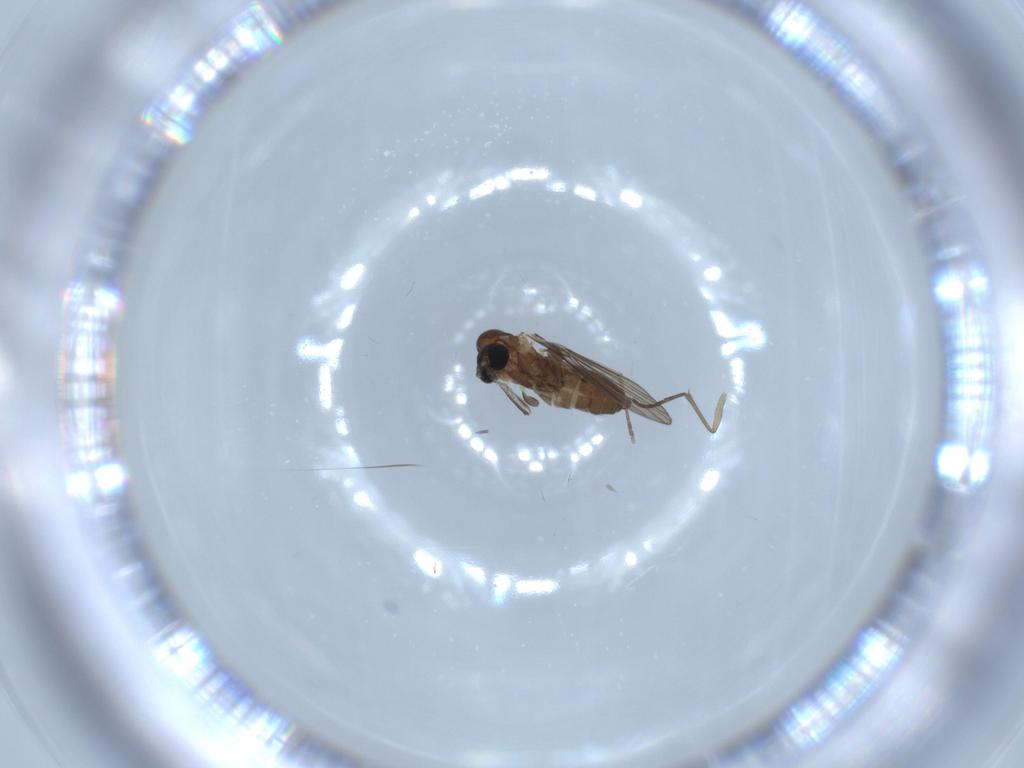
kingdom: Animalia
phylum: Arthropoda
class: Insecta
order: Diptera
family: Sciaridae
